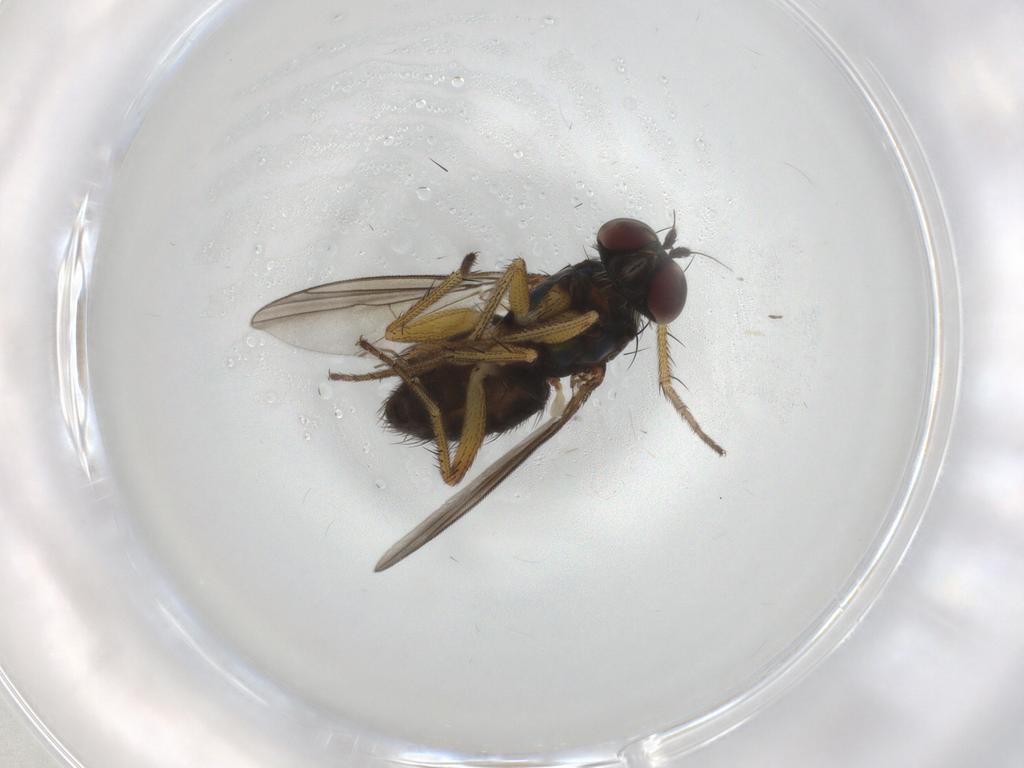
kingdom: Animalia
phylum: Arthropoda
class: Insecta
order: Diptera
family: Dolichopodidae
